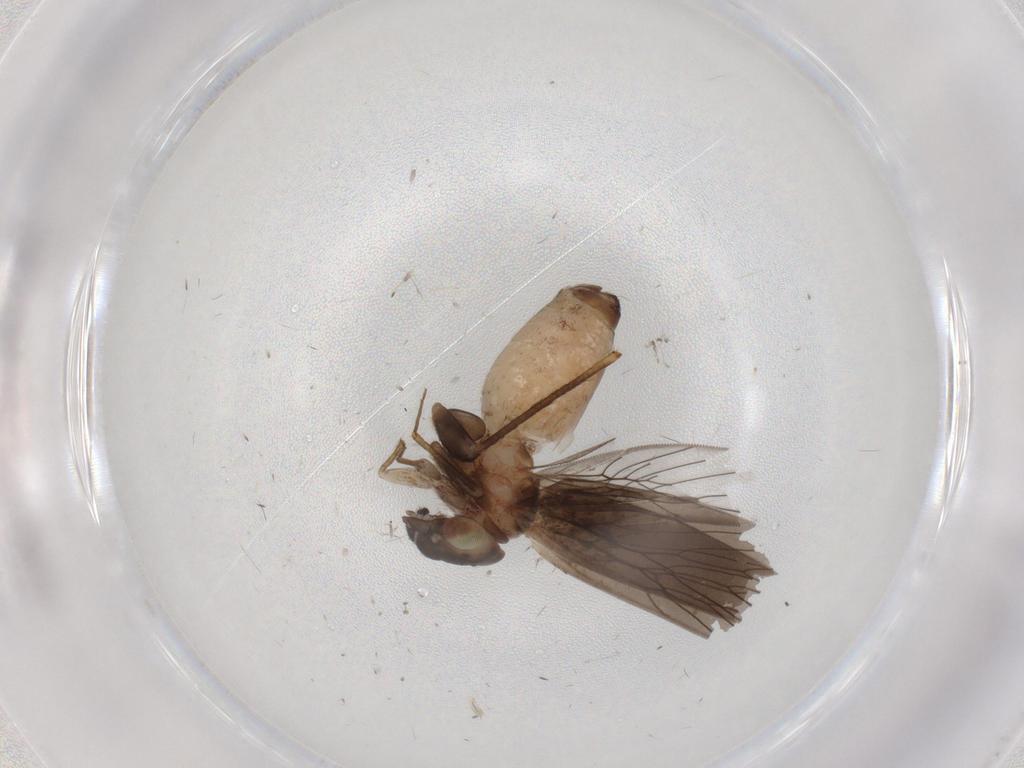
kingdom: Animalia
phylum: Arthropoda
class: Insecta
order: Psocodea
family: Lepidopsocidae
